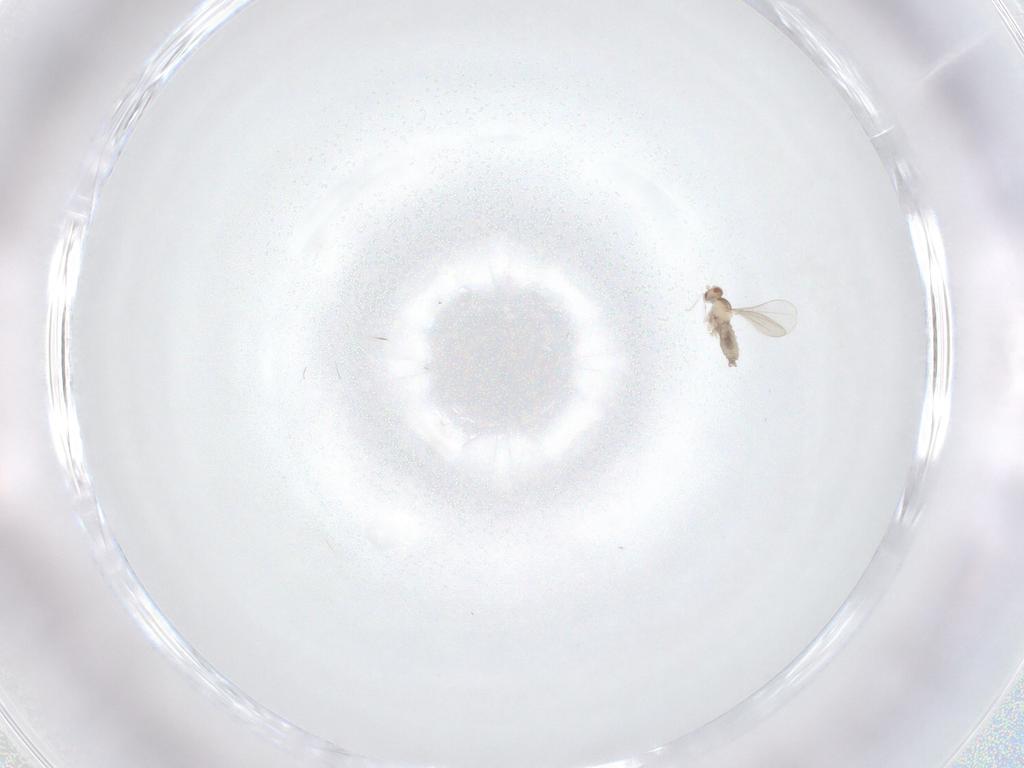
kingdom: Animalia
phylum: Arthropoda
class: Insecta
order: Diptera
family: Cecidomyiidae
